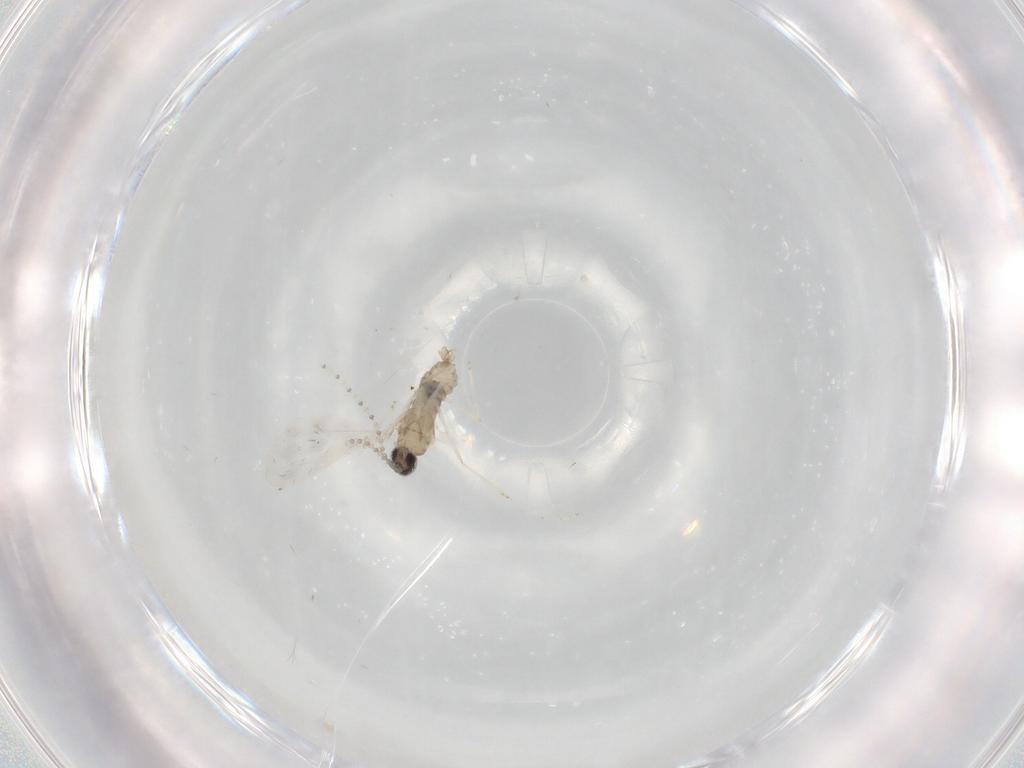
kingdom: Animalia
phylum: Arthropoda
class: Insecta
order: Diptera
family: Cecidomyiidae
